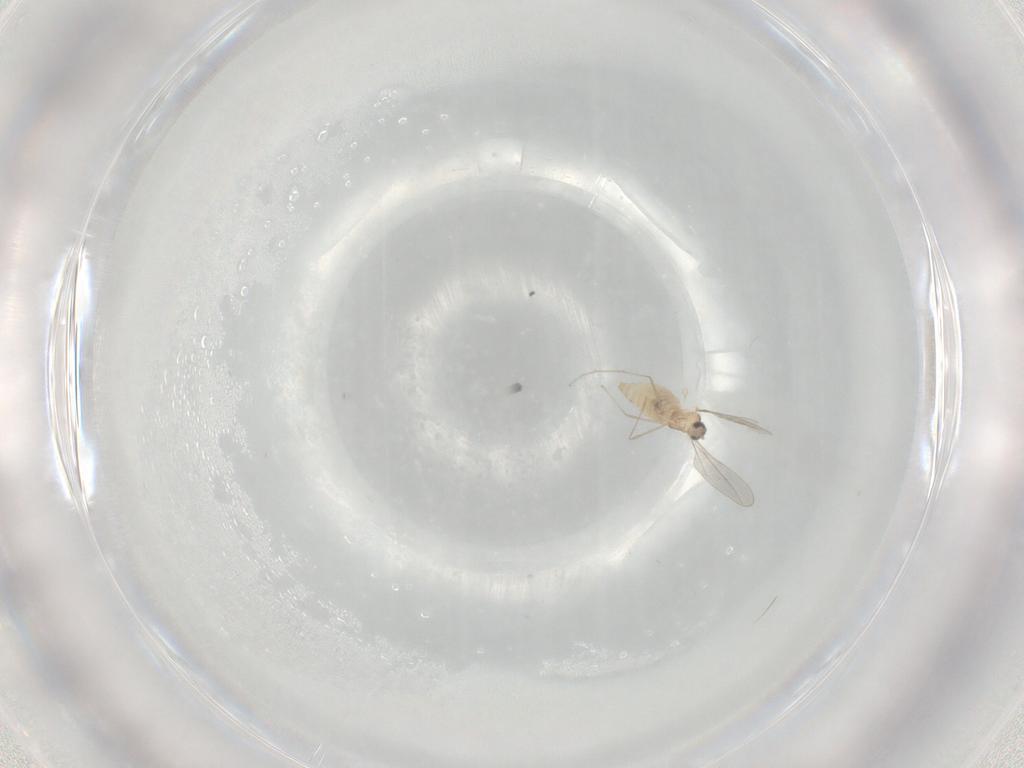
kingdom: Animalia
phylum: Arthropoda
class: Insecta
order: Diptera
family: Cecidomyiidae
